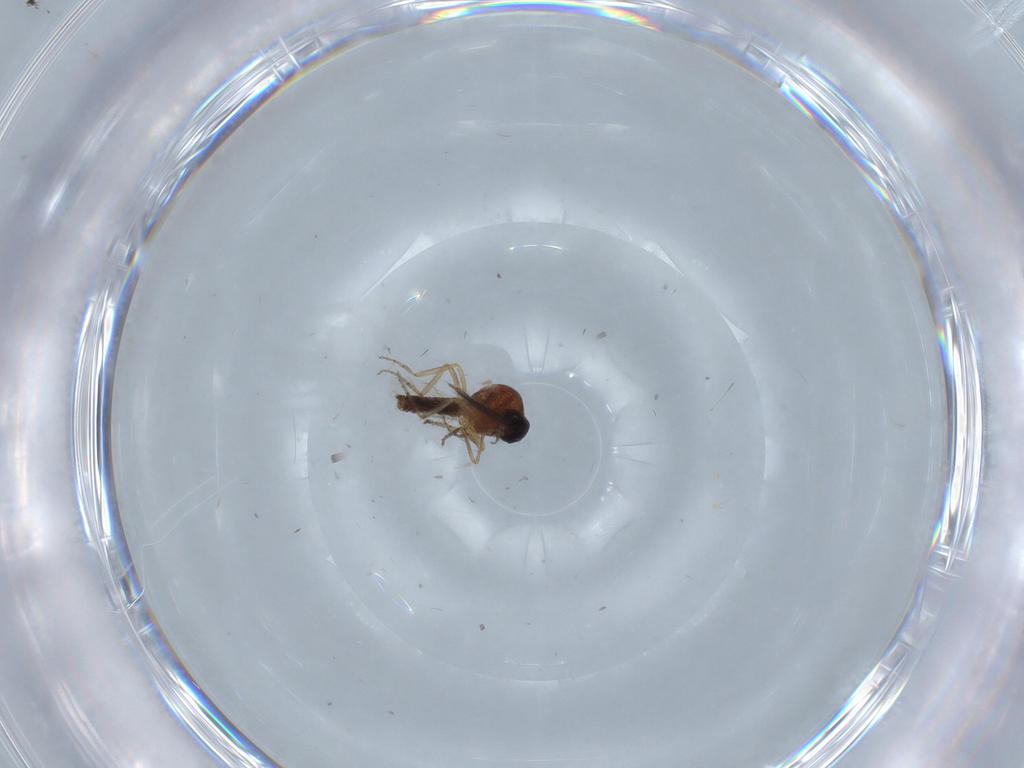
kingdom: Animalia
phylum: Arthropoda
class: Insecta
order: Diptera
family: Ceratopogonidae
